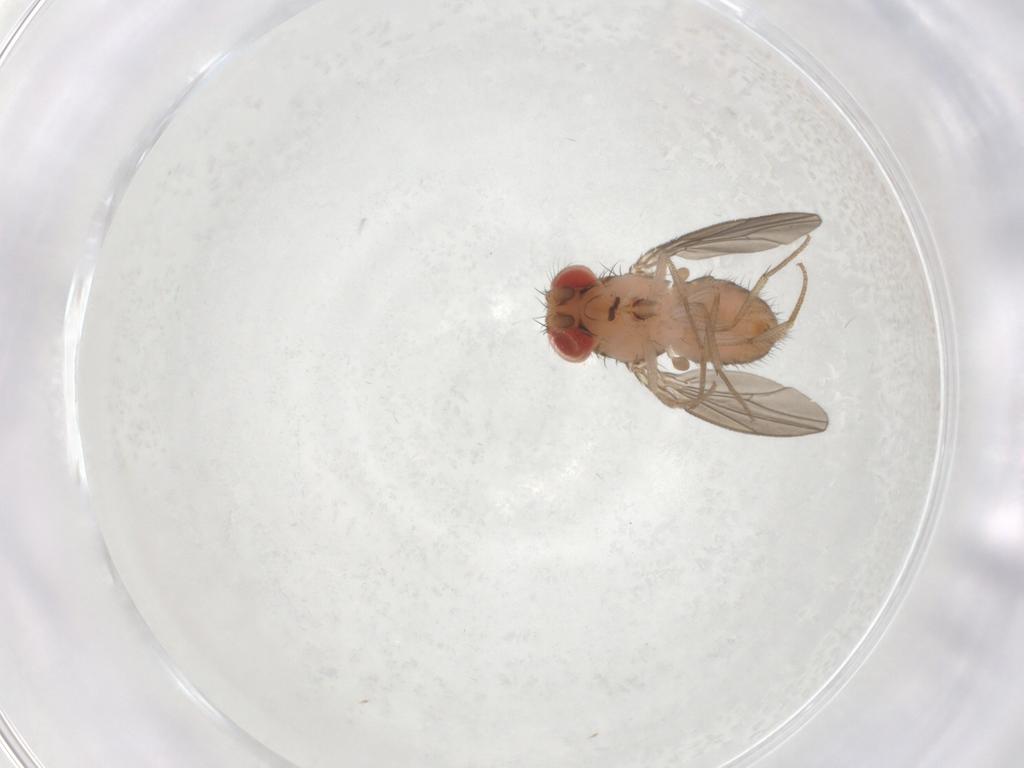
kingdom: Animalia
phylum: Arthropoda
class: Insecta
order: Diptera
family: Drosophilidae
